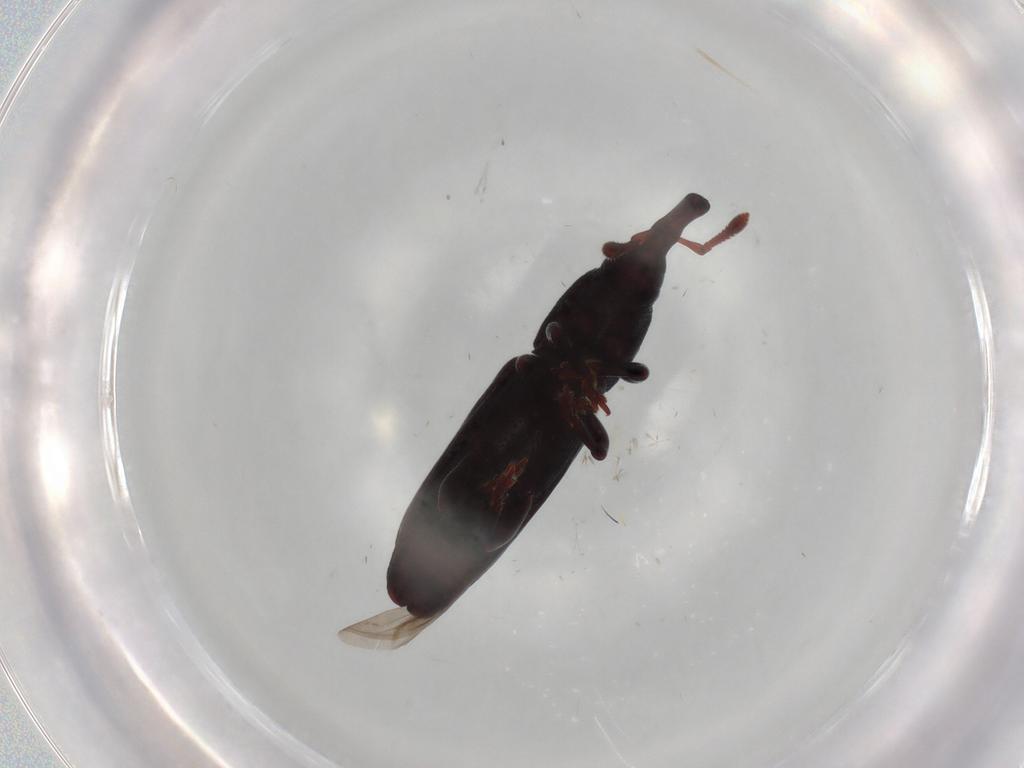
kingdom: Animalia
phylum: Arthropoda
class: Insecta
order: Coleoptera
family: Curculionidae
